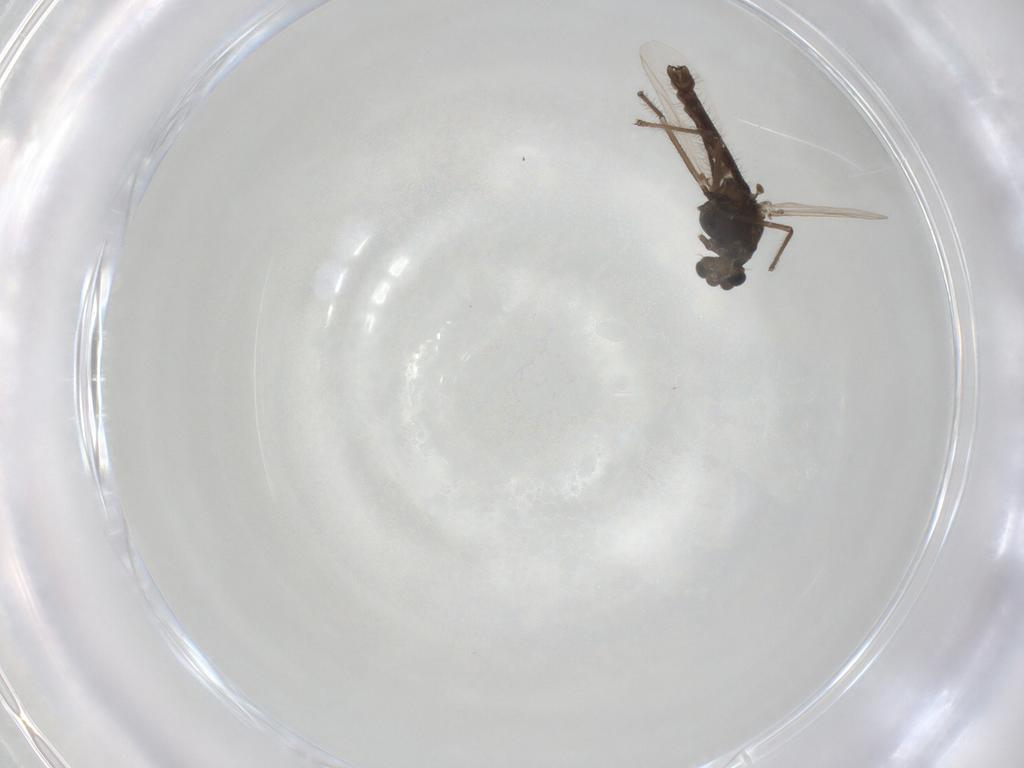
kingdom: Animalia
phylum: Arthropoda
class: Insecta
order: Diptera
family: Chironomidae
